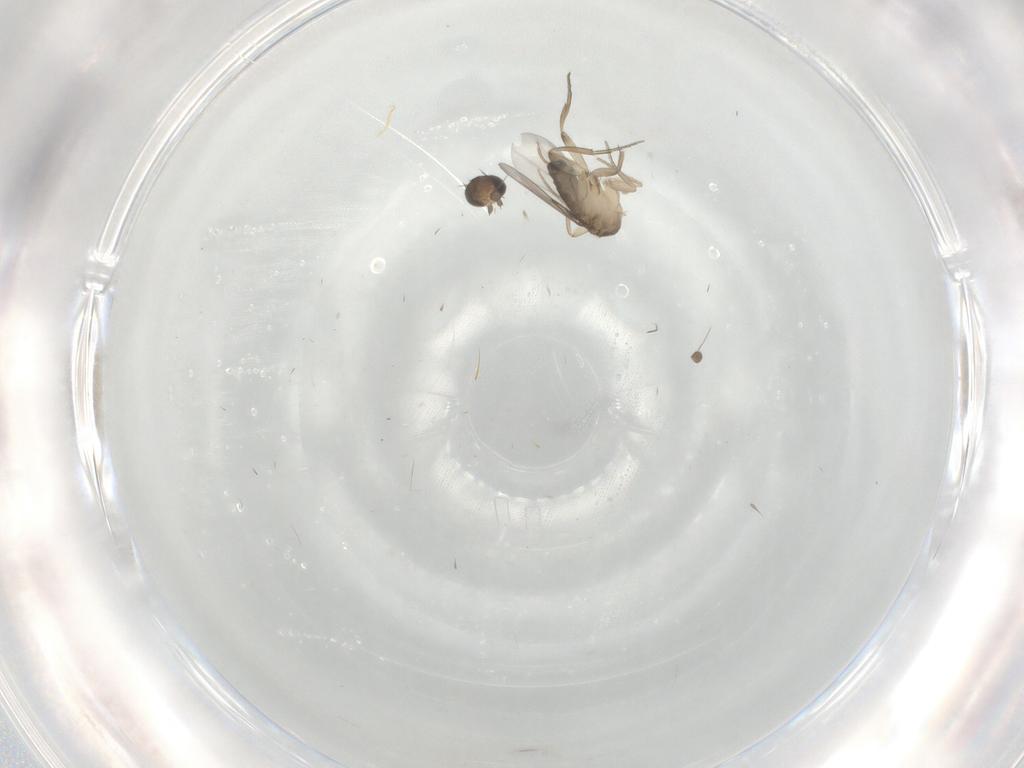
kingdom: Animalia
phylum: Arthropoda
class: Insecta
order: Diptera
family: Phoridae
